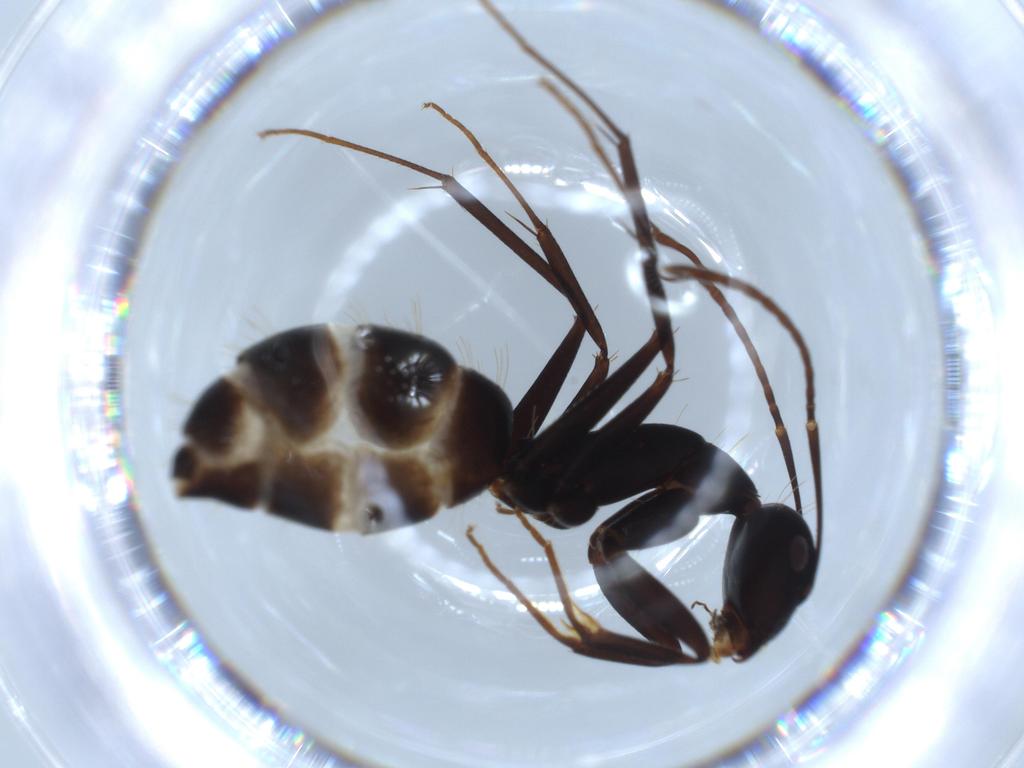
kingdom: Animalia
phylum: Arthropoda
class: Insecta
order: Hymenoptera
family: Formicidae
